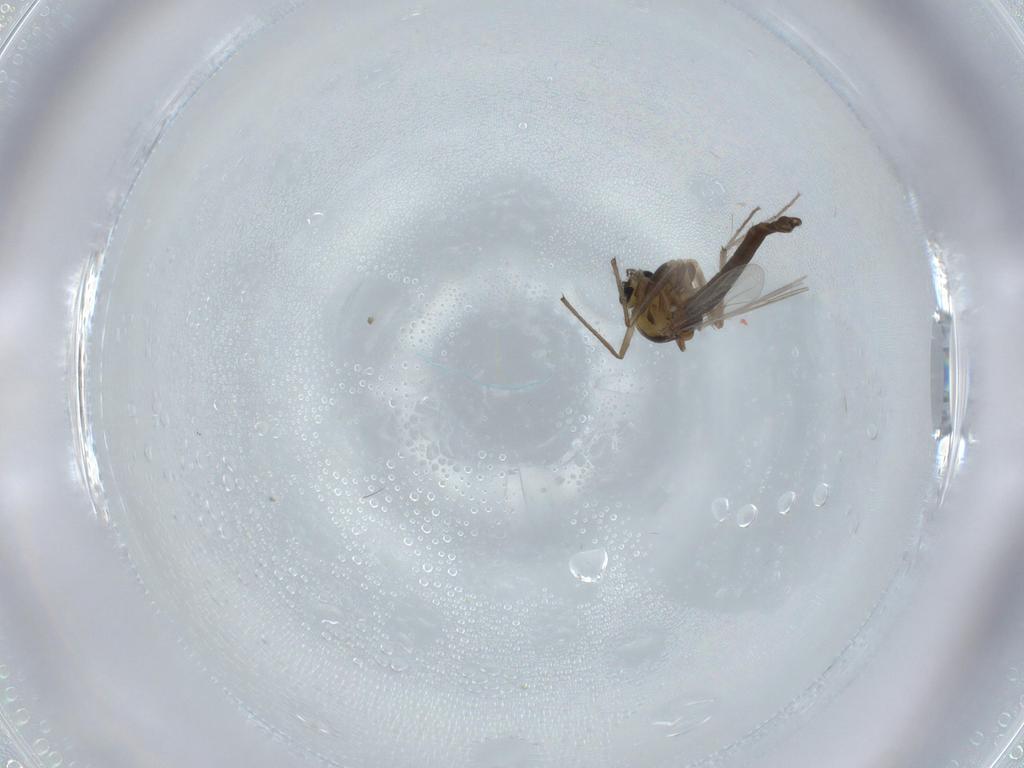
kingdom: Animalia
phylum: Arthropoda
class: Insecta
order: Diptera
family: Chironomidae
